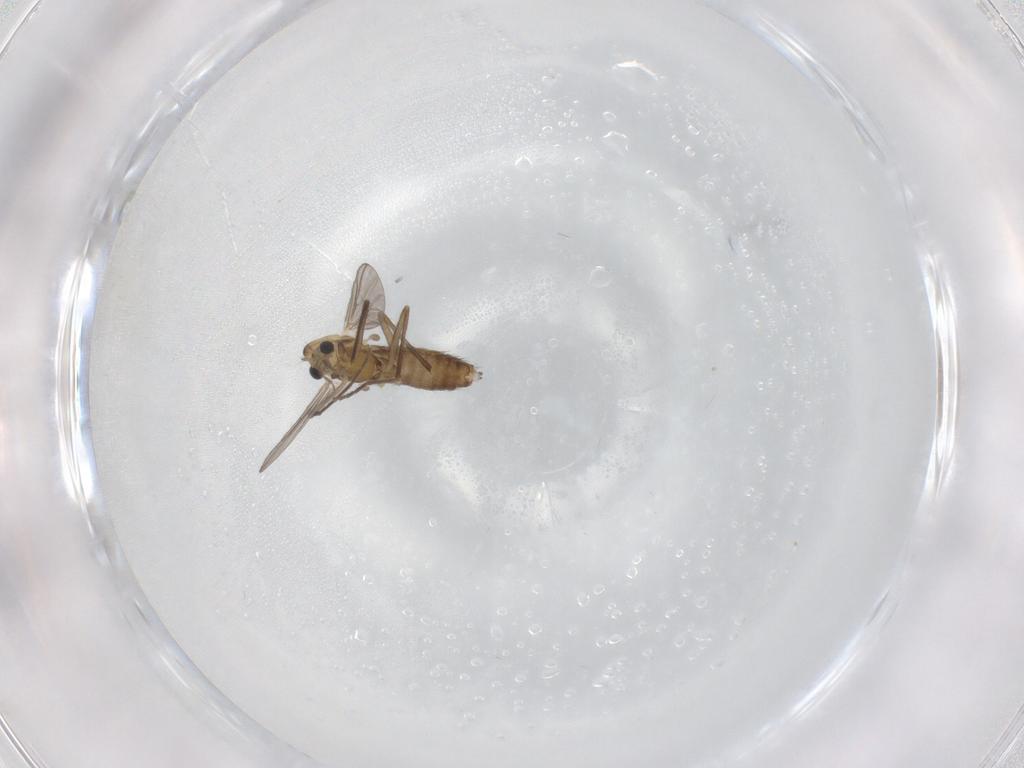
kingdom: Animalia
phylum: Arthropoda
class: Insecta
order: Diptera
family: Chironomidae
